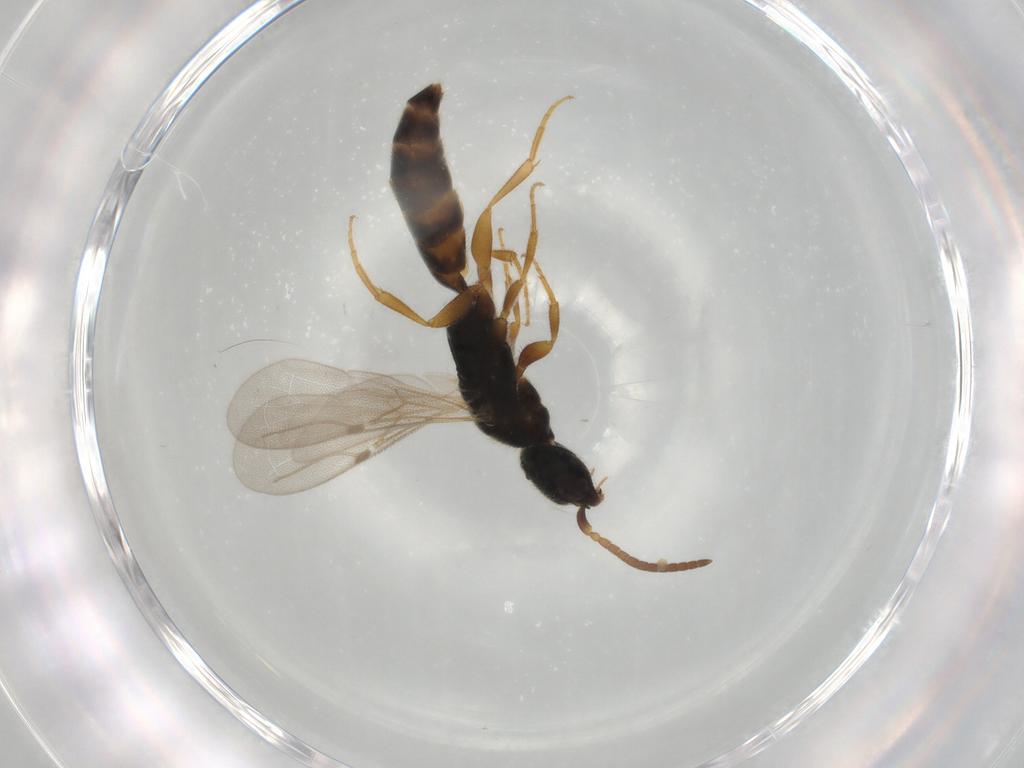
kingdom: Animalia
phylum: Arthropoda
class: Insecta
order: Hymenoptera
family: Bethylidae
